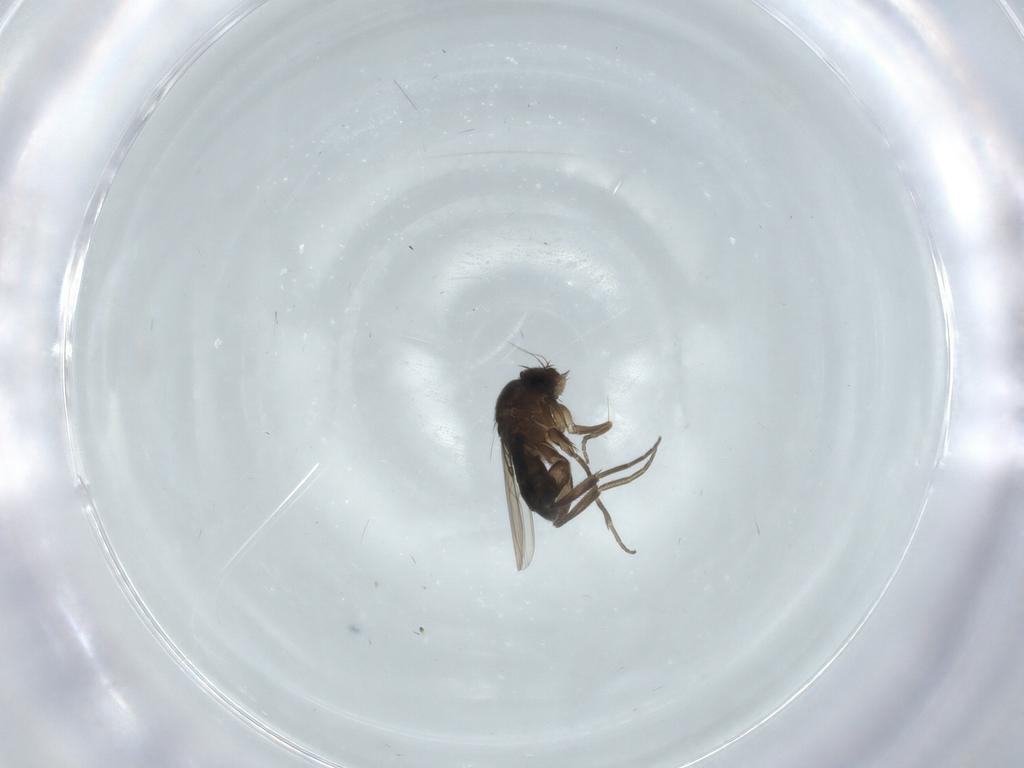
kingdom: Animalia
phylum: Arthropoda
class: Insecta
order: Diptera
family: Phoridae
